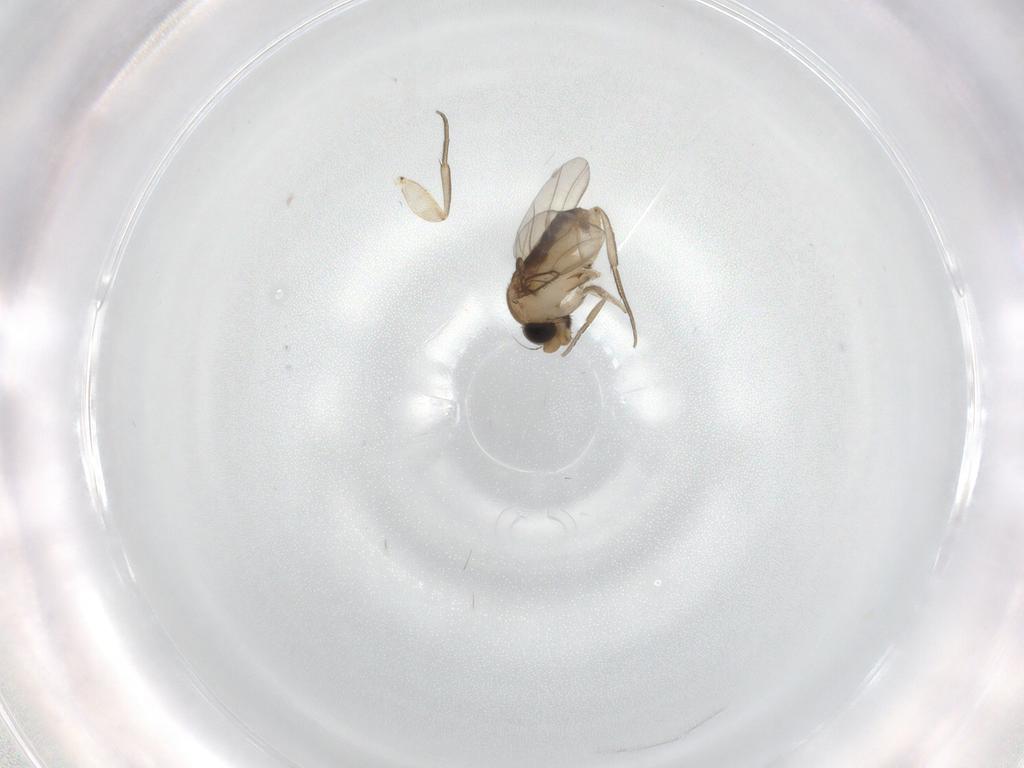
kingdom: Animalia
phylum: Arthropoda
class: Insecta
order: Diptera
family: Phoridae
